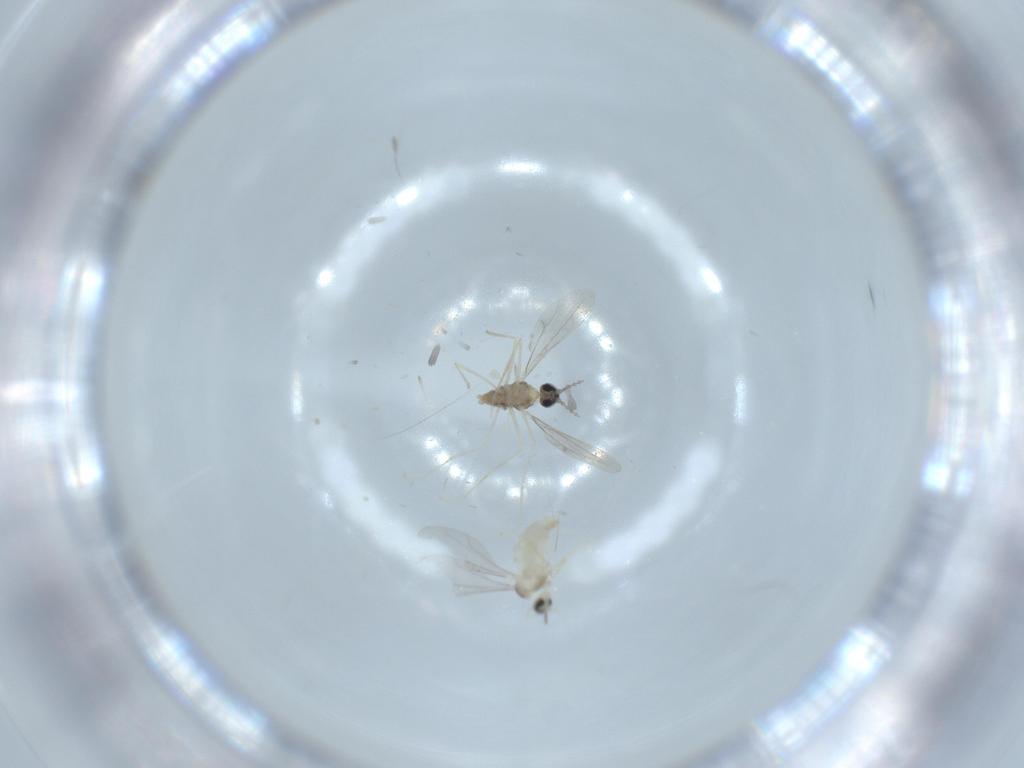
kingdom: Animalia
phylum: Arthropoda
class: Insecta
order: Diptera
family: Cecidomyiidae
